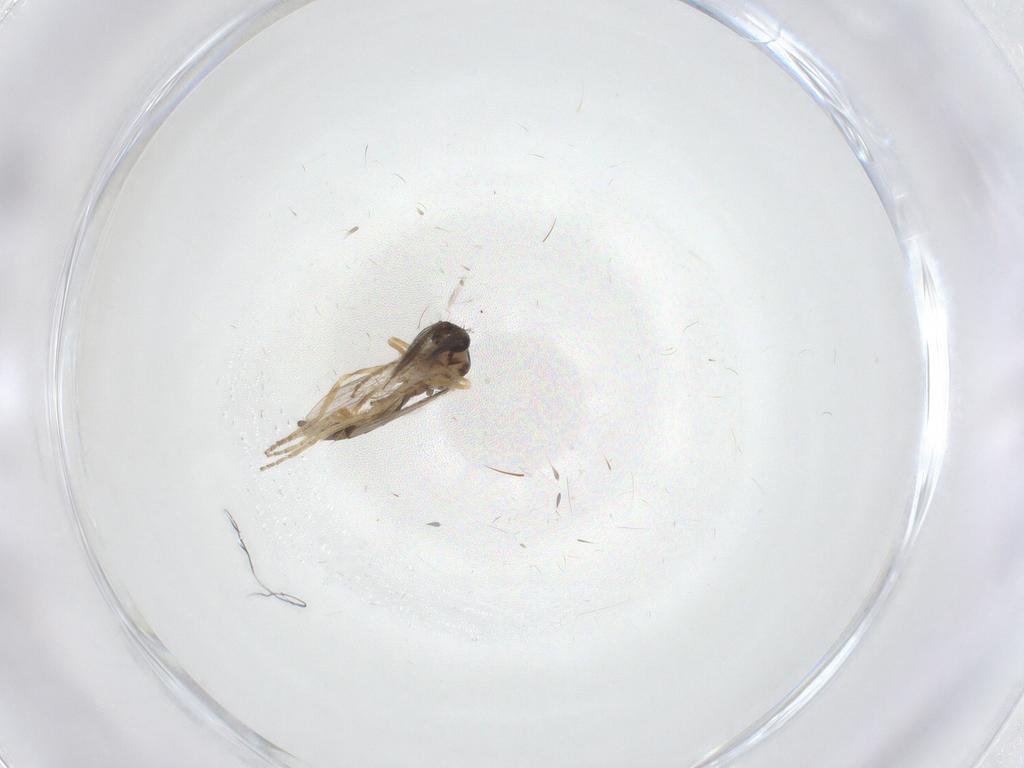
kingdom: Animalia
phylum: Arthropoda
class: Insecta
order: Diptera
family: Ceratopogonidae
